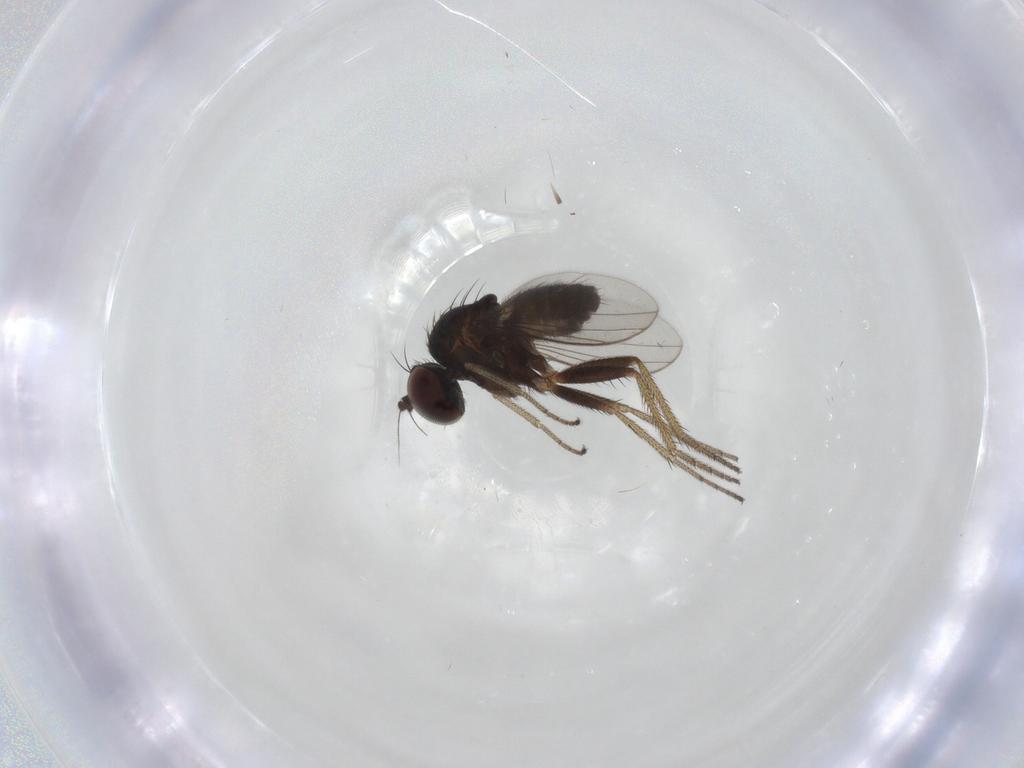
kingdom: Animalia
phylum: Arthropoda
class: Insecta
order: Diptera
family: Dolichopodidae
